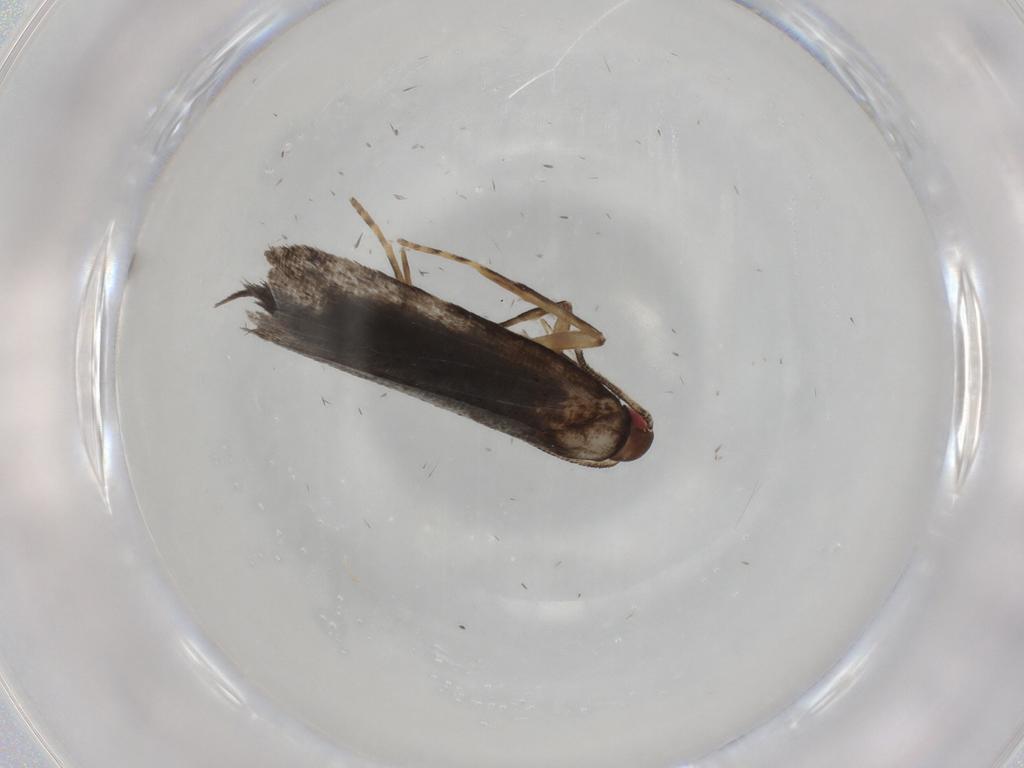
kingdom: Animalia
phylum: Arthropoda
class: Insecta
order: Lepidoptera
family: Gelechiidae
